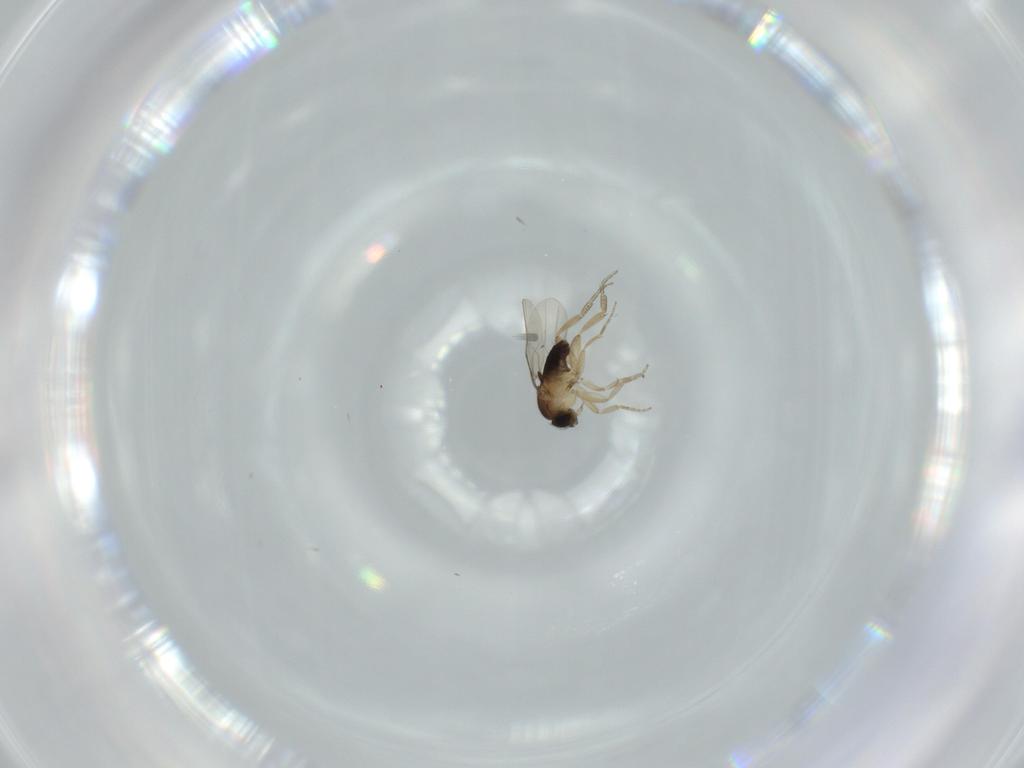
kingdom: Animalia
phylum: Arthropoda
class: Insecta
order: Diptera
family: Phoridae
